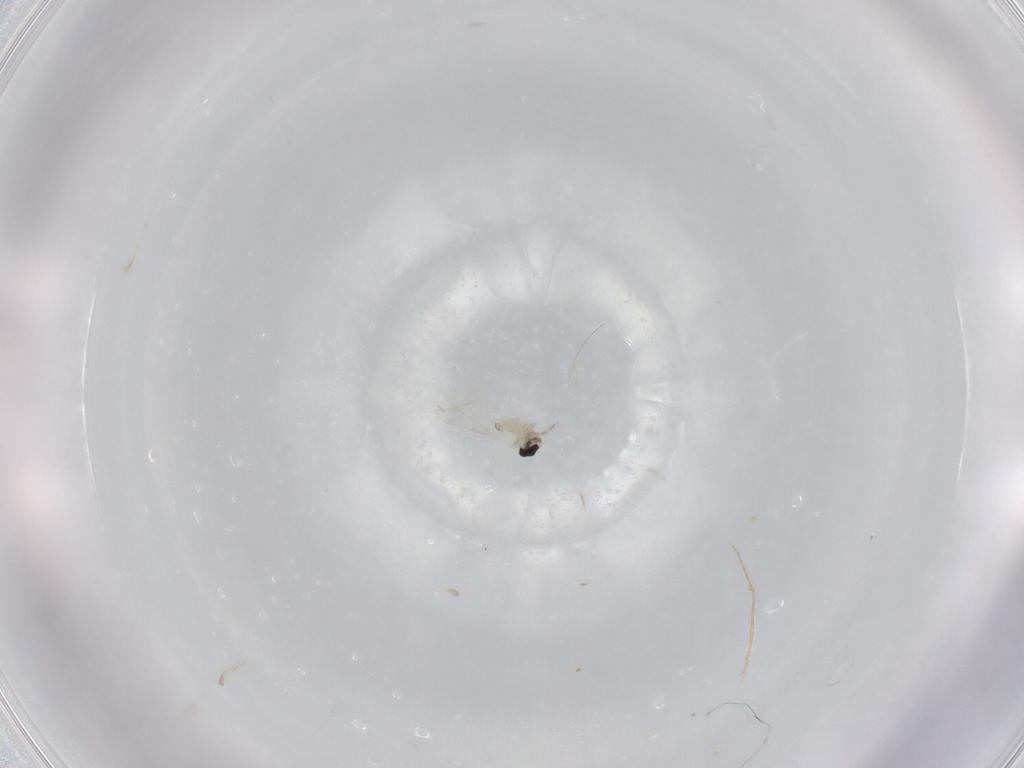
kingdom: Animalia
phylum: Arthropoda
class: Insecta
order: Diptera
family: Cecidomyiidae
